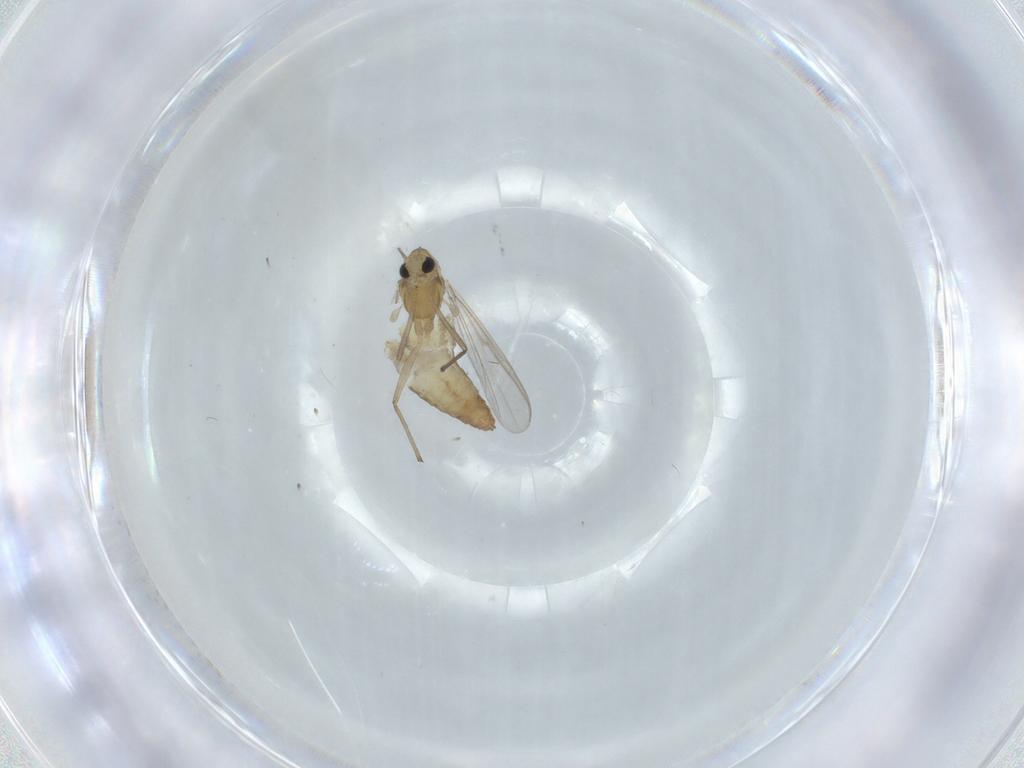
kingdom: Animalia
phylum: Arthropoda
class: Insecta
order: Diptera
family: Chironomidae
